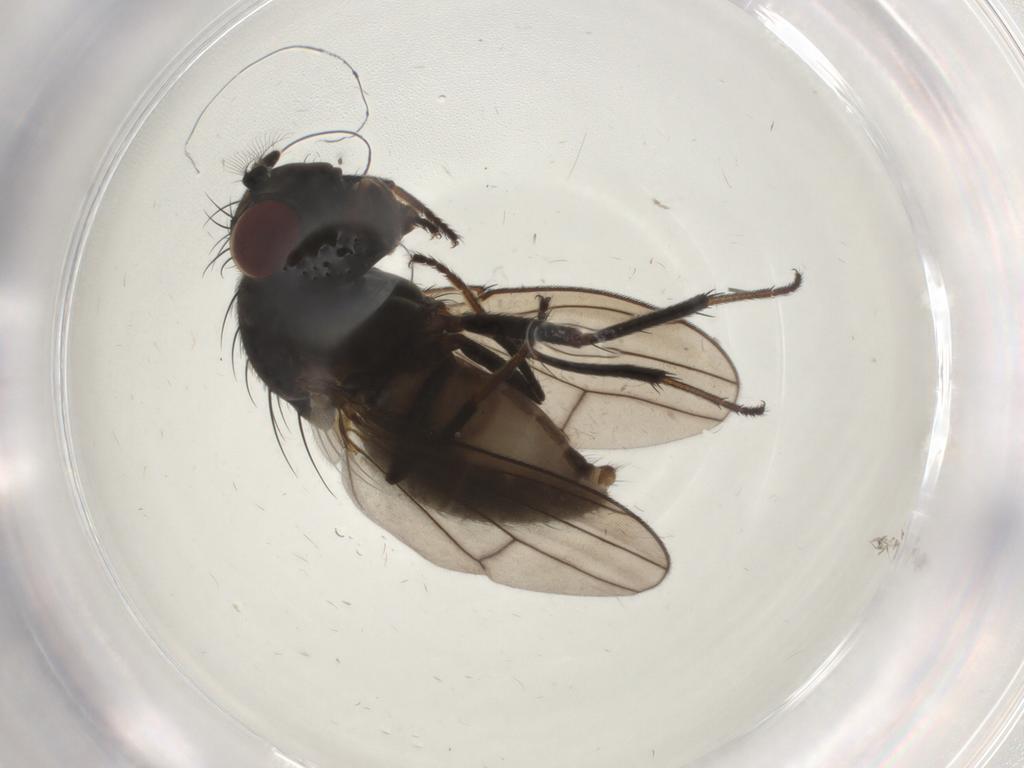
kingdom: Animalia
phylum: Arthropoda
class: Insecta
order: Diptera
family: Ephydridae
